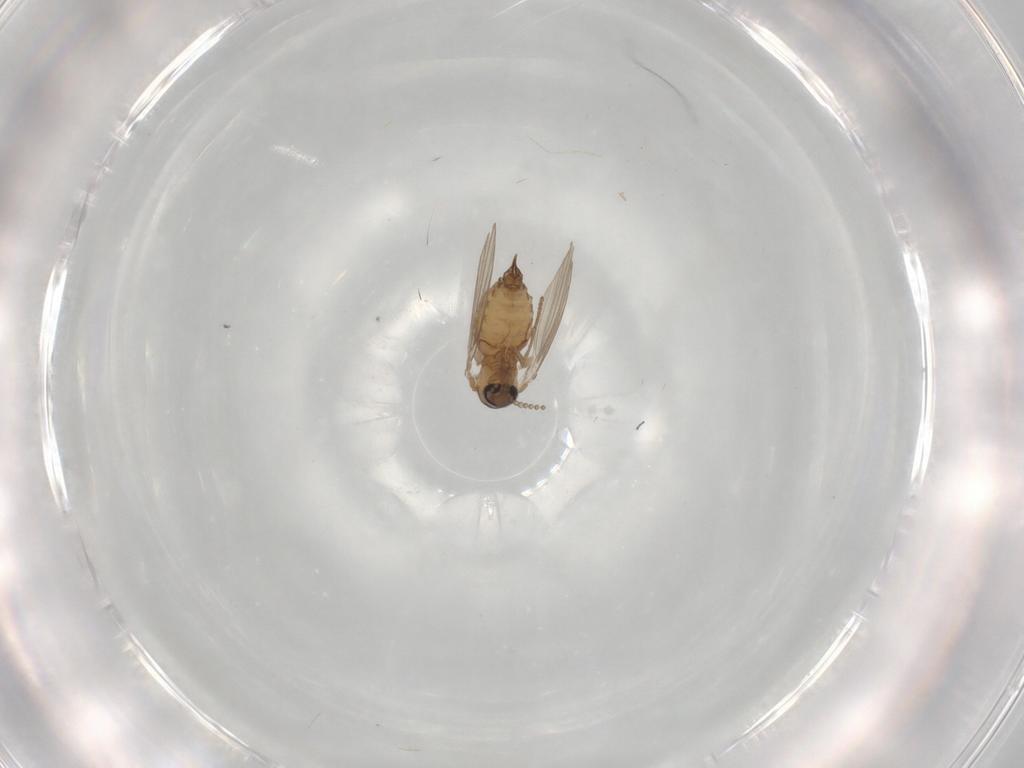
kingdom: Animalia
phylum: Arthropoda
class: Insecta
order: Diptera
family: Psychodidae
